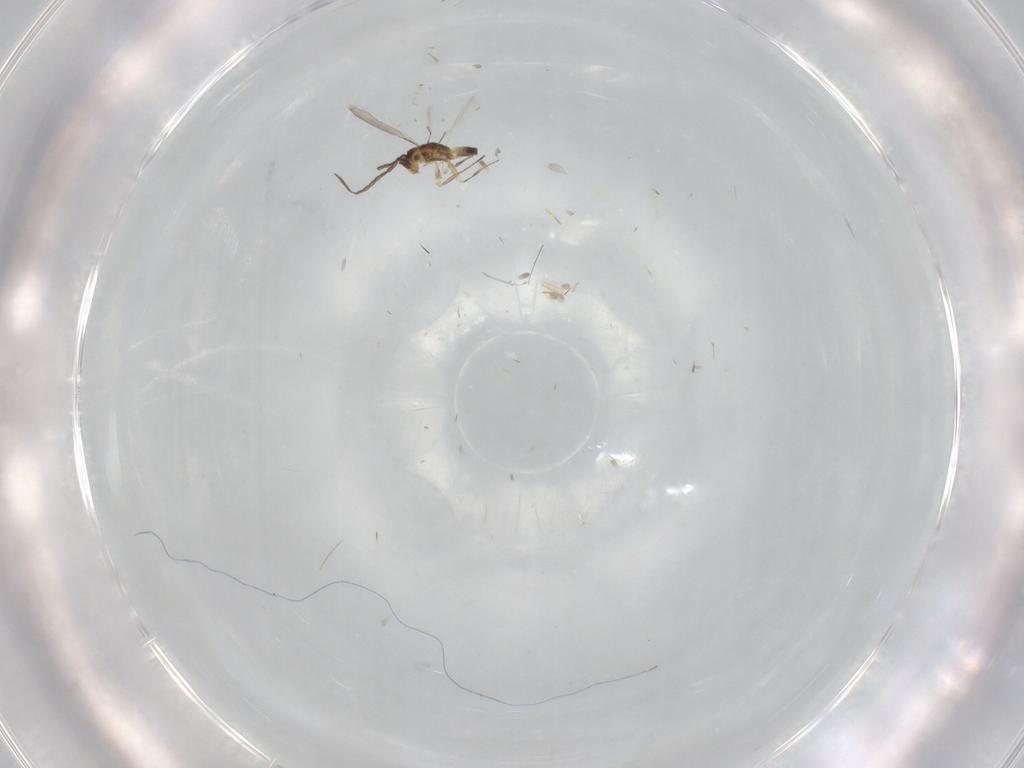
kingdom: Animalia
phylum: Arthropoda
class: Insecta
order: Hymenoptera
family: Mymaridae
